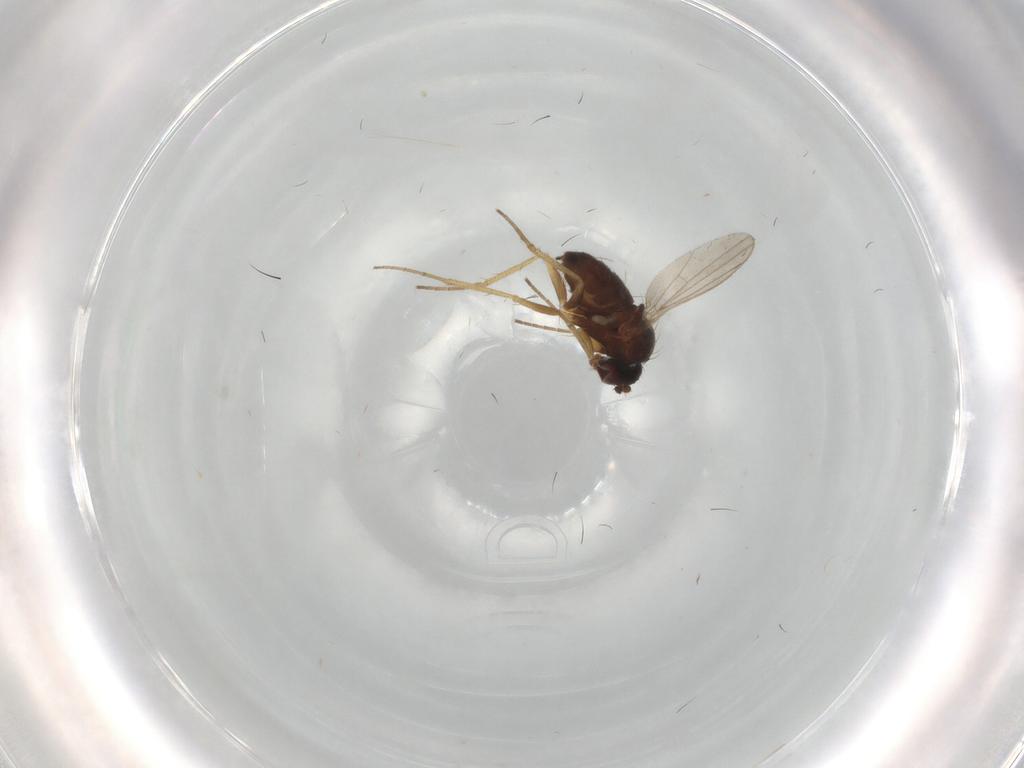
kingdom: Animalia
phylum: Arthropoda
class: Insecta
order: Diptera
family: Dolichopodidae
